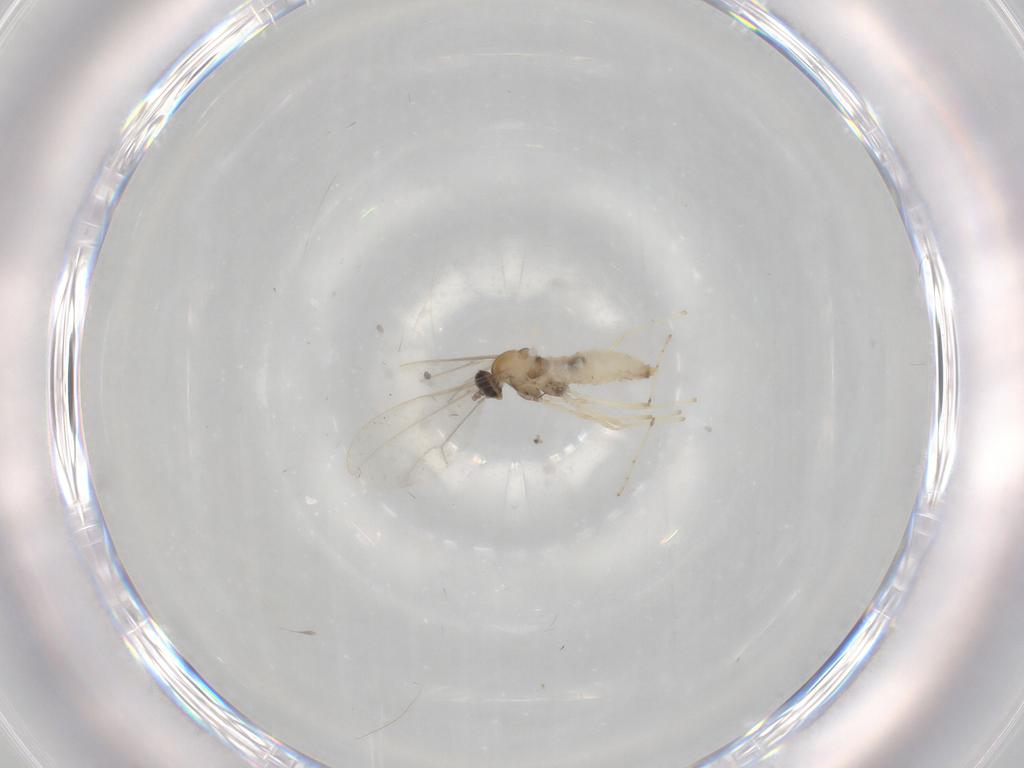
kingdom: Animalia
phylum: Arthropoda
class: Insecta
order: Diptera
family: Cecidomyiidae
